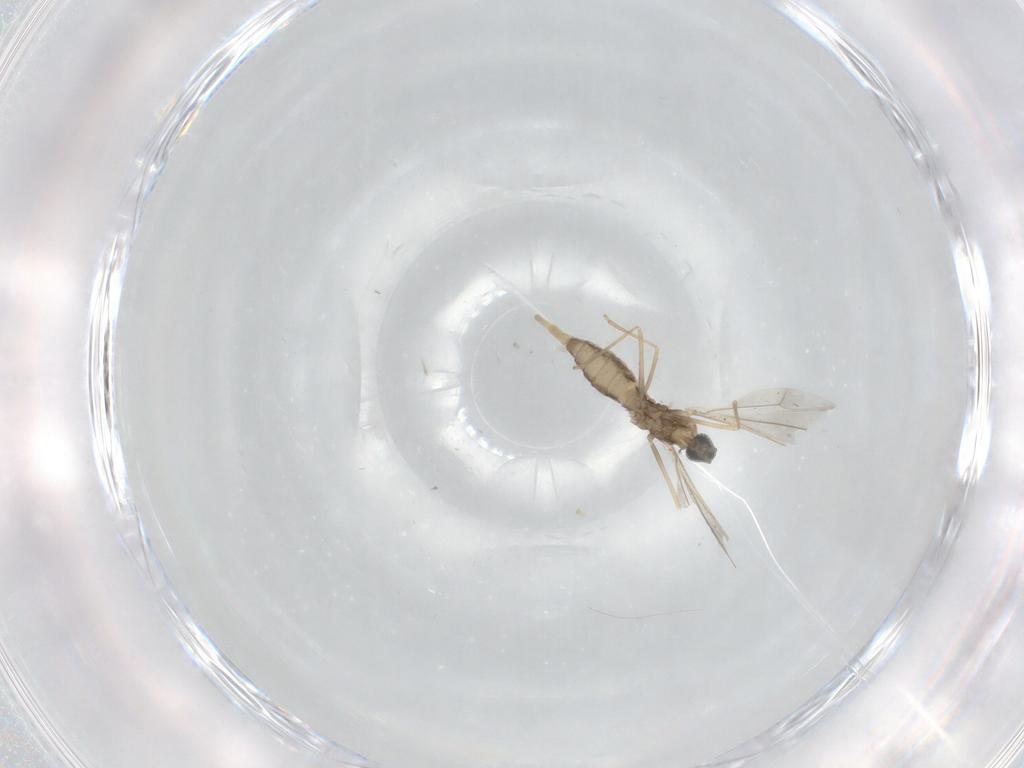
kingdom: Animalia
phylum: Arthropoda
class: Insecta
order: Diptera
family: Cecidomyiidae
